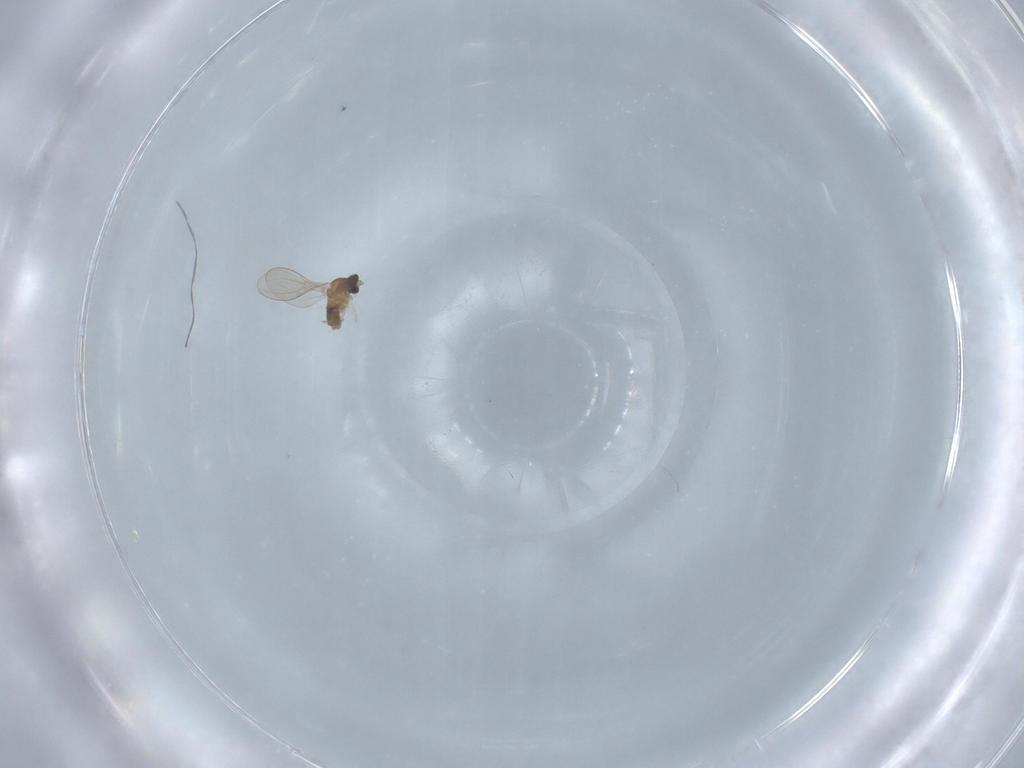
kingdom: Animalia
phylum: Arthropoda
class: Insecta
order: Diptera
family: Cecidomyiidae
